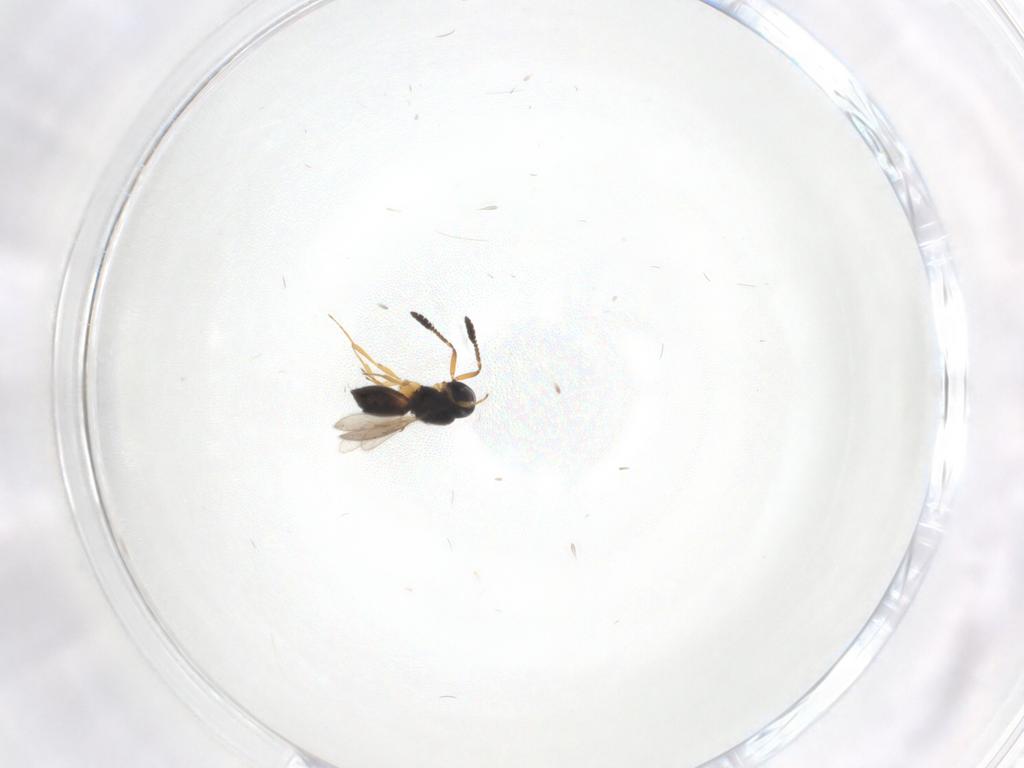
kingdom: Animalia
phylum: Arthropoda
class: Insecta
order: Hymenoptera
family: Scelionidae
